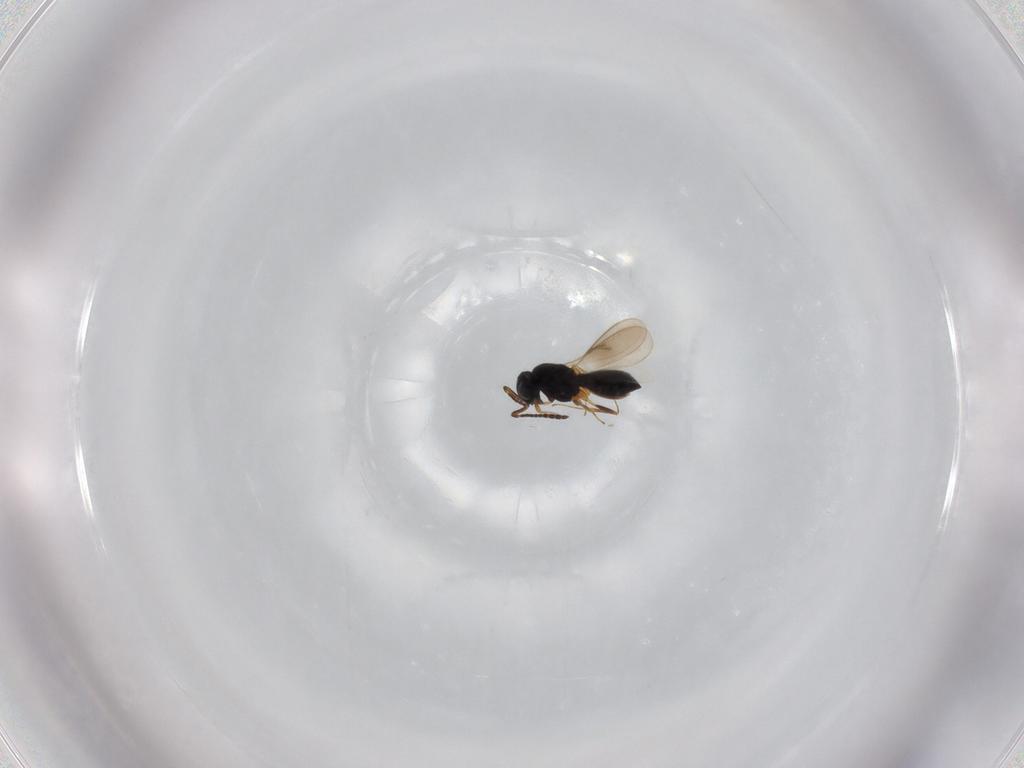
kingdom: Animalia
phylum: Arthropoda
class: Insecta
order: Hymenoptera
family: Scelionidae
